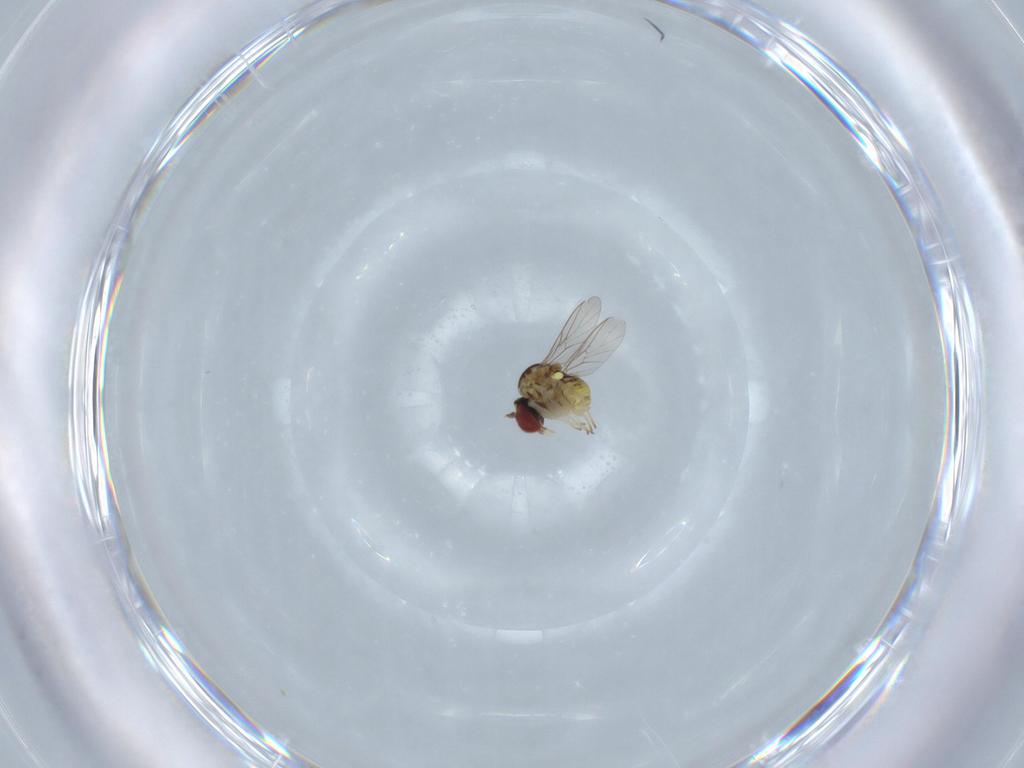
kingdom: Animalia
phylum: Arthropoda
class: Insecta
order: Diptera
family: Bombyliidae
